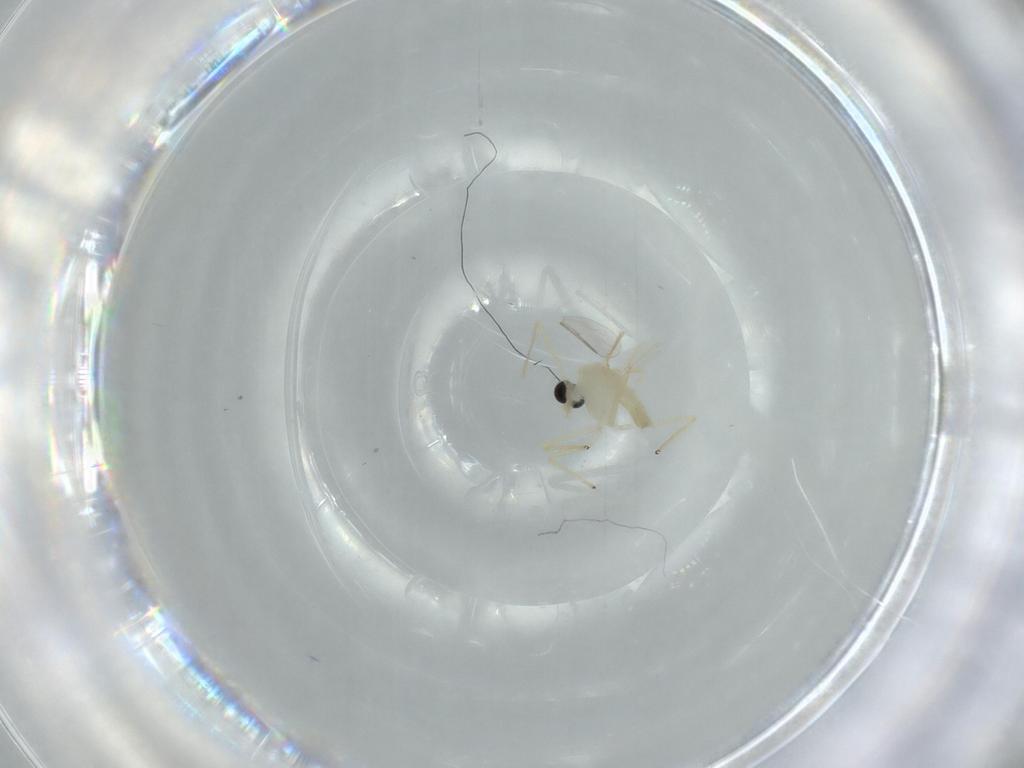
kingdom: Animalia
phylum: Arthropoda
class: Insecta
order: Diptera
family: Chironomidae
